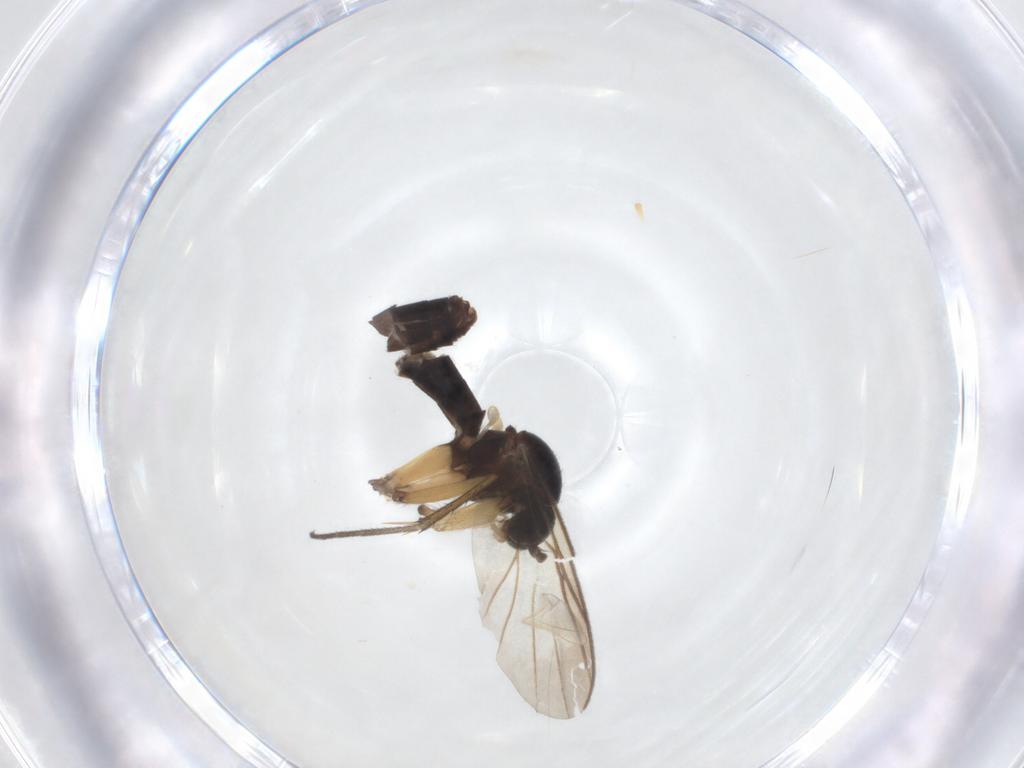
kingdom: Animalia
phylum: Arthropoda
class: Insecta
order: Diptera
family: Mycetophilidae
